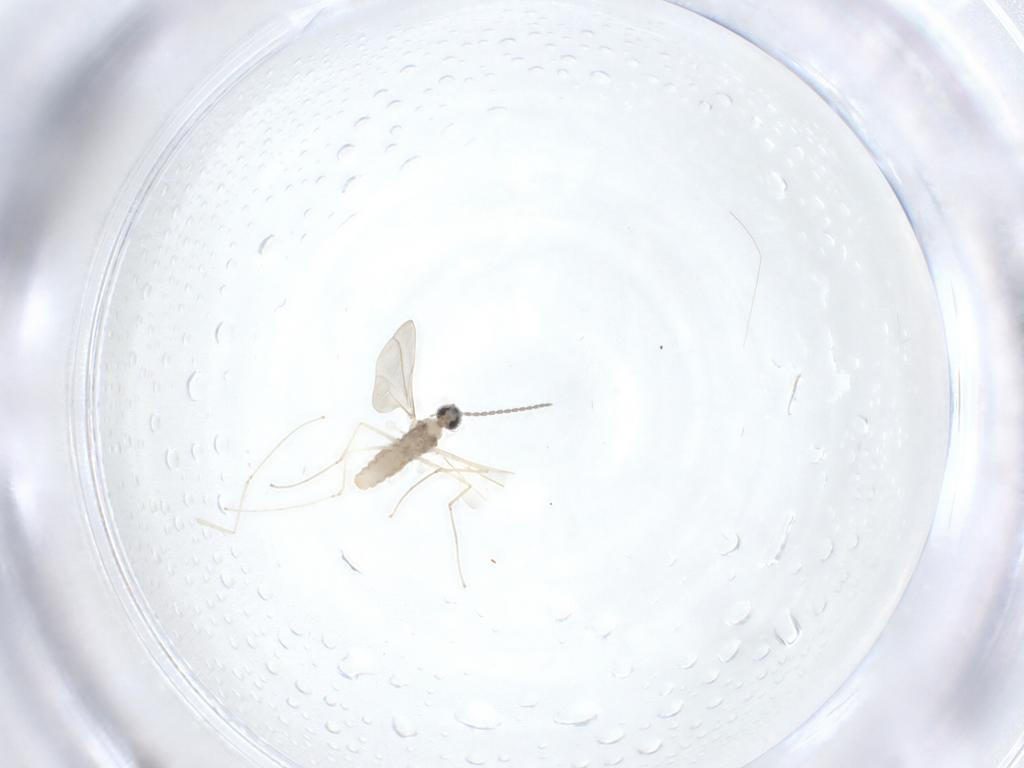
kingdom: Animalia
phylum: Arthropoda
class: Insecta
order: Diptera
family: Cecidomyiidae
